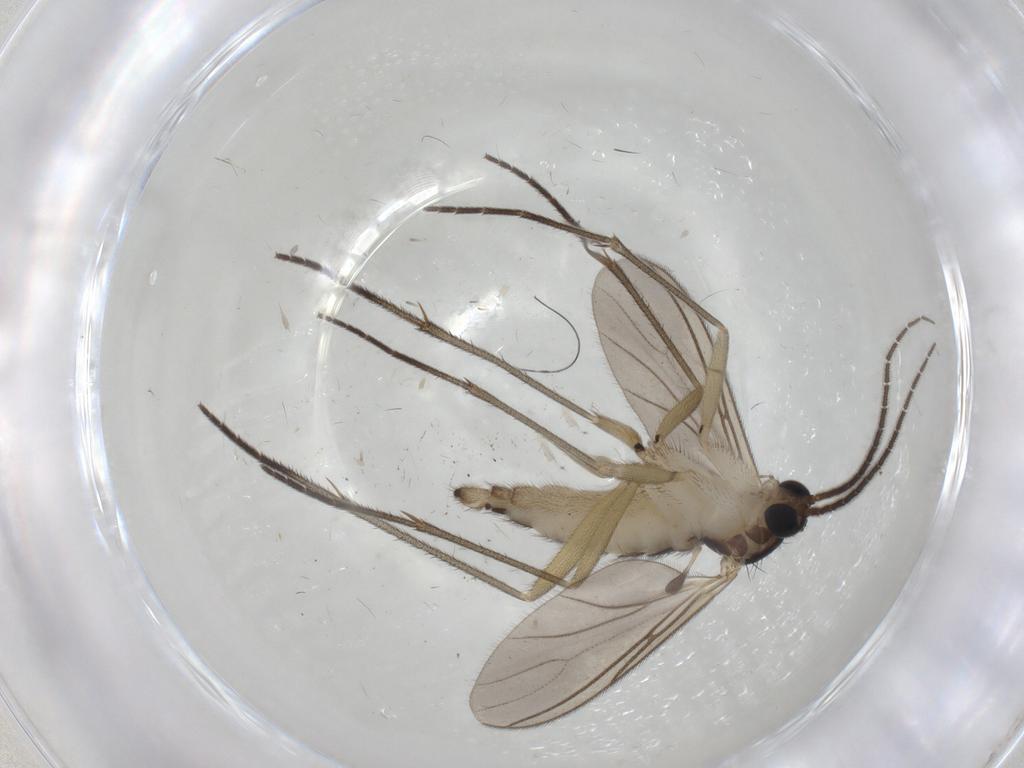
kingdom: Animalia
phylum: Arthropoda
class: Insecta
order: Diptera
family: Sciaridae
